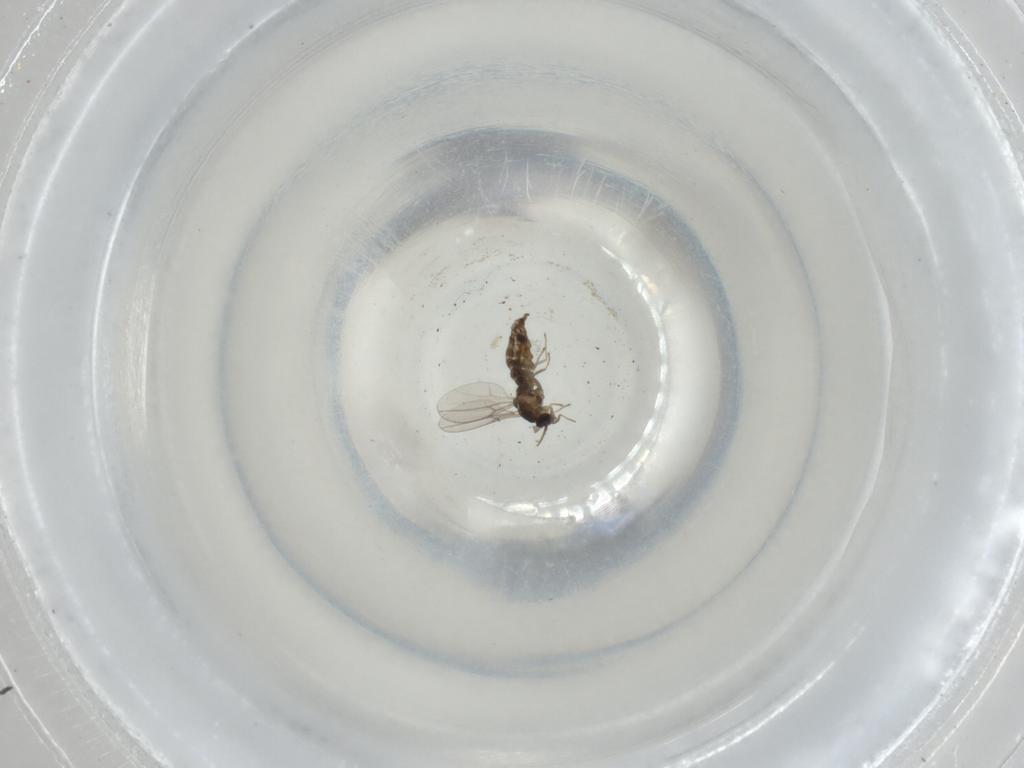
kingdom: Animalia
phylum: Arthropoda
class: Insecta
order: Diptera
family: Cecidomyiidae
